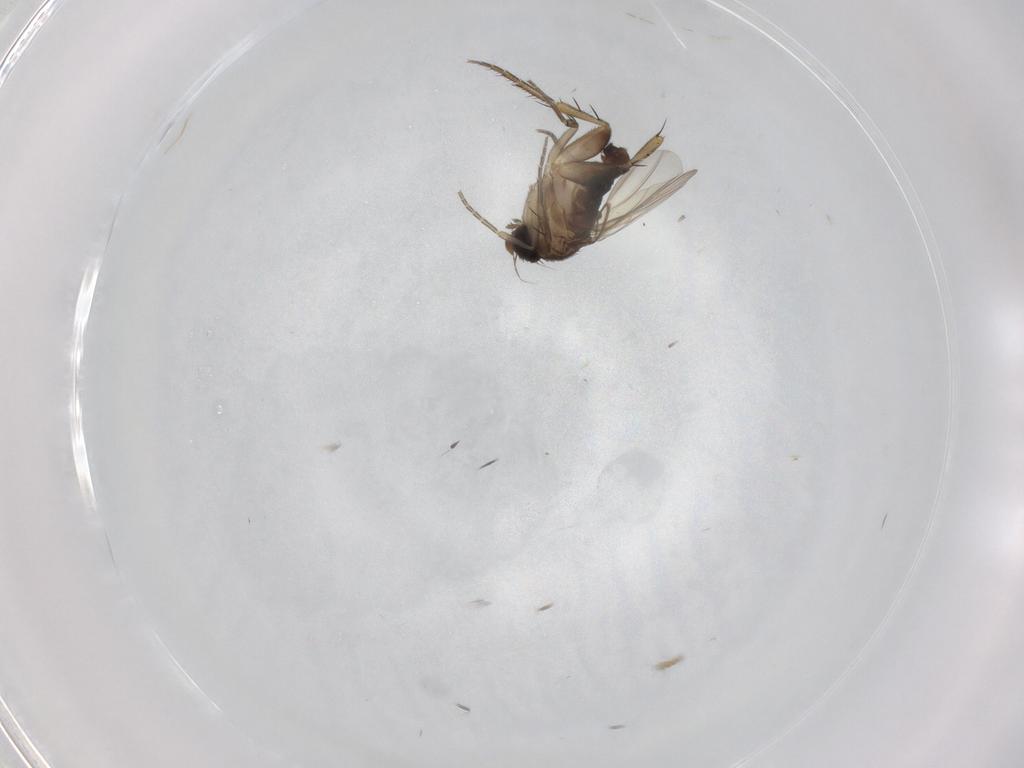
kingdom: Animalia
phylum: Arthropoda
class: Insecta
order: Diptera
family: Phoridae
